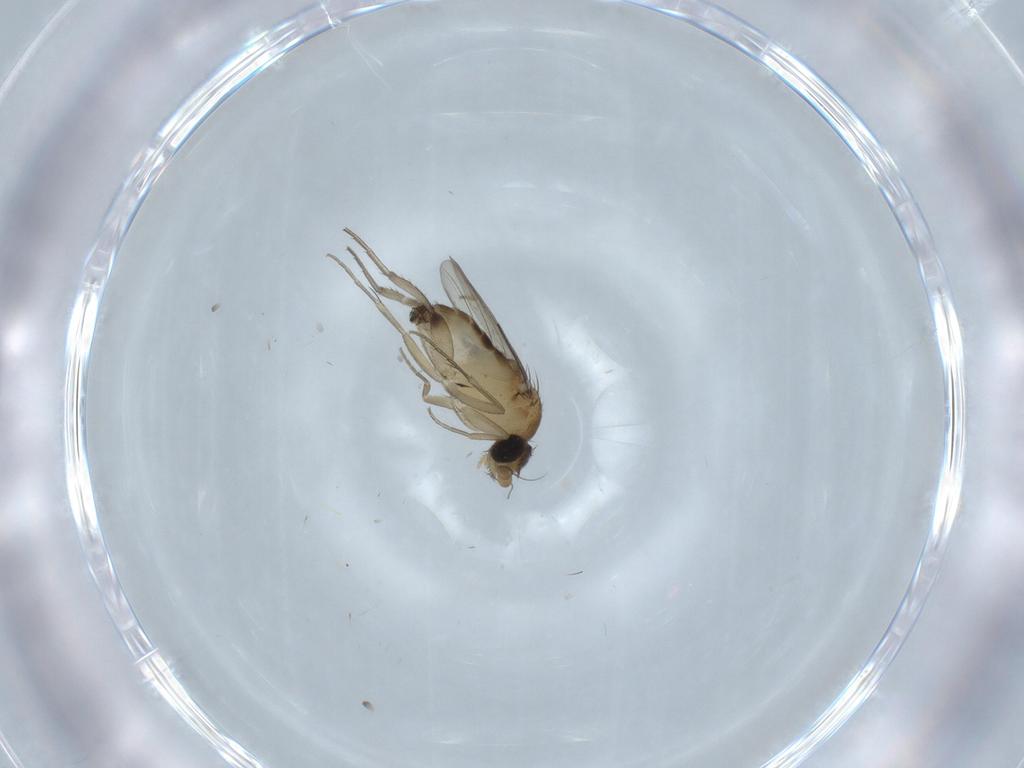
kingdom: Animalia
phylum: Arthropoda
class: Insecta
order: Diptera
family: Phoridae
